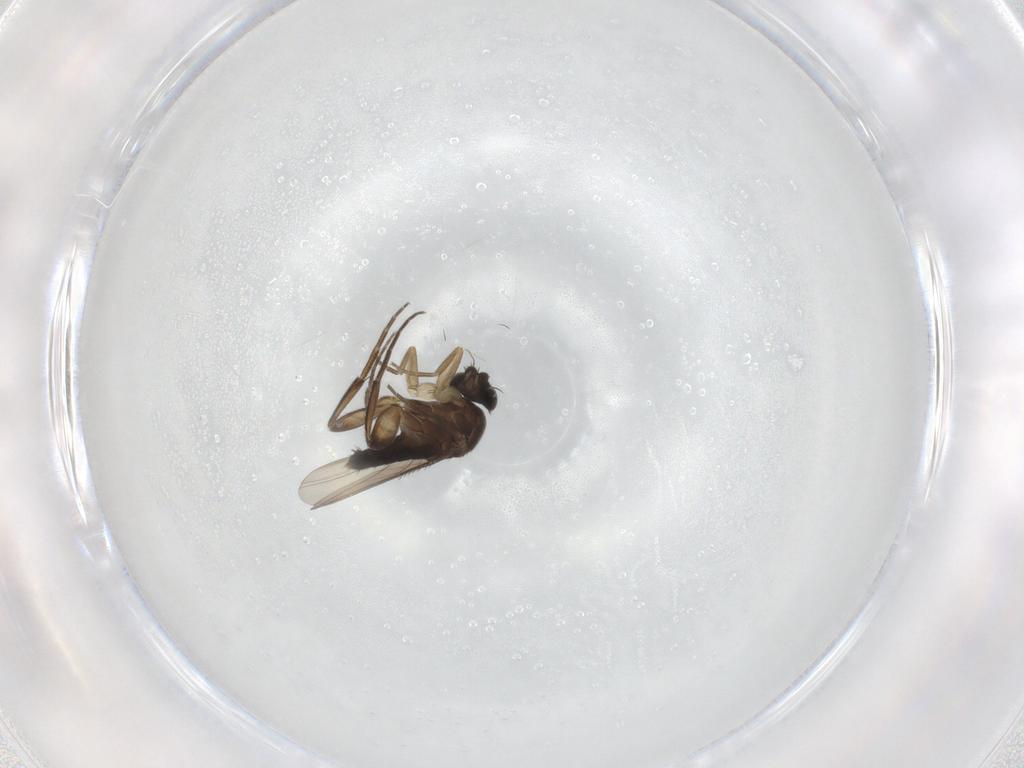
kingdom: Animalia
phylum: Arthropoda
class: Insecta
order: Diptera
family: Phoridae
